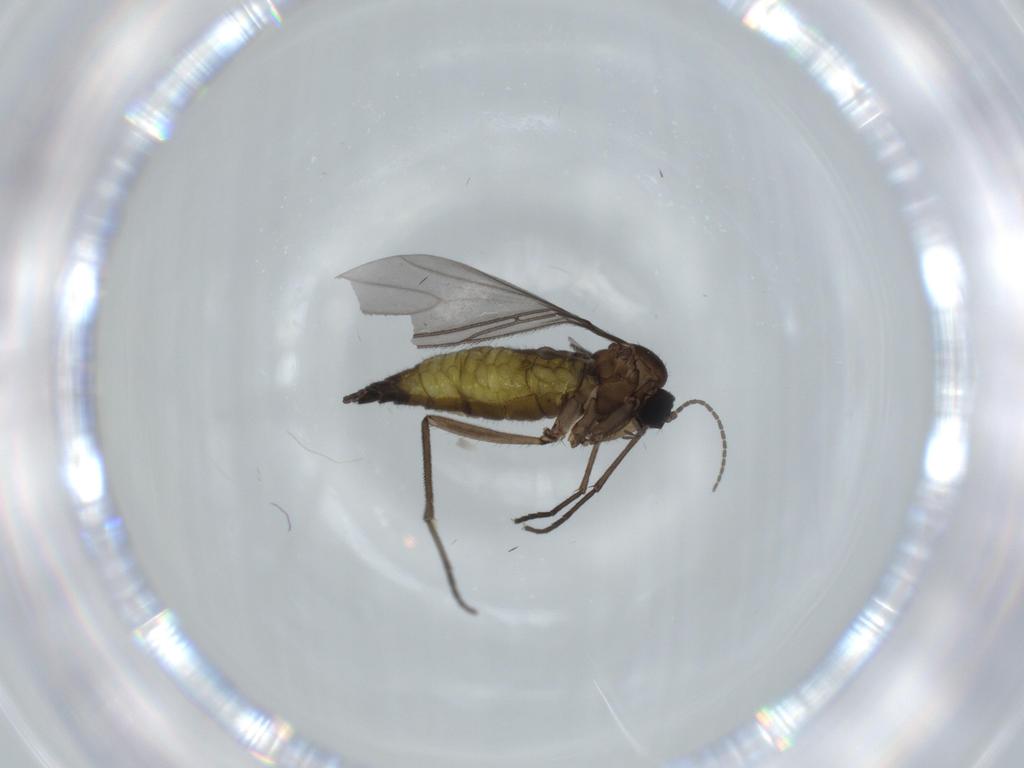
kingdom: Animalia
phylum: Arthropoda
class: Insecta
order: Diptera
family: Sciaridae
